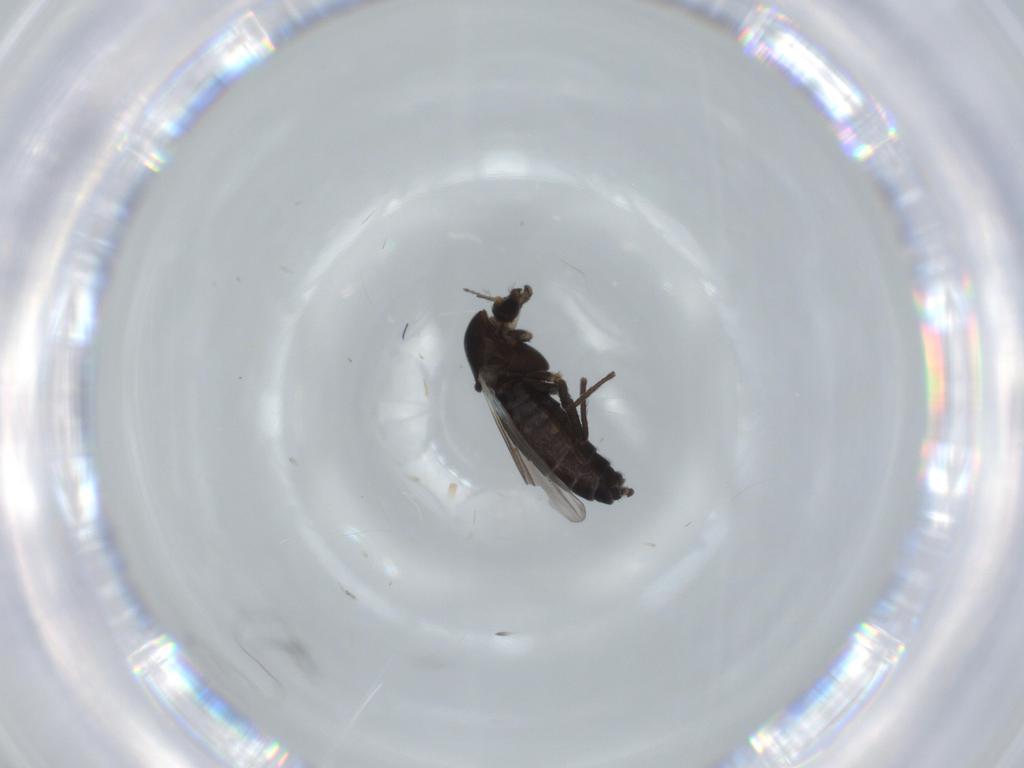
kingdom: Animalia
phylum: Arthropoda
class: Insecta
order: Diptera
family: Chironomidae
